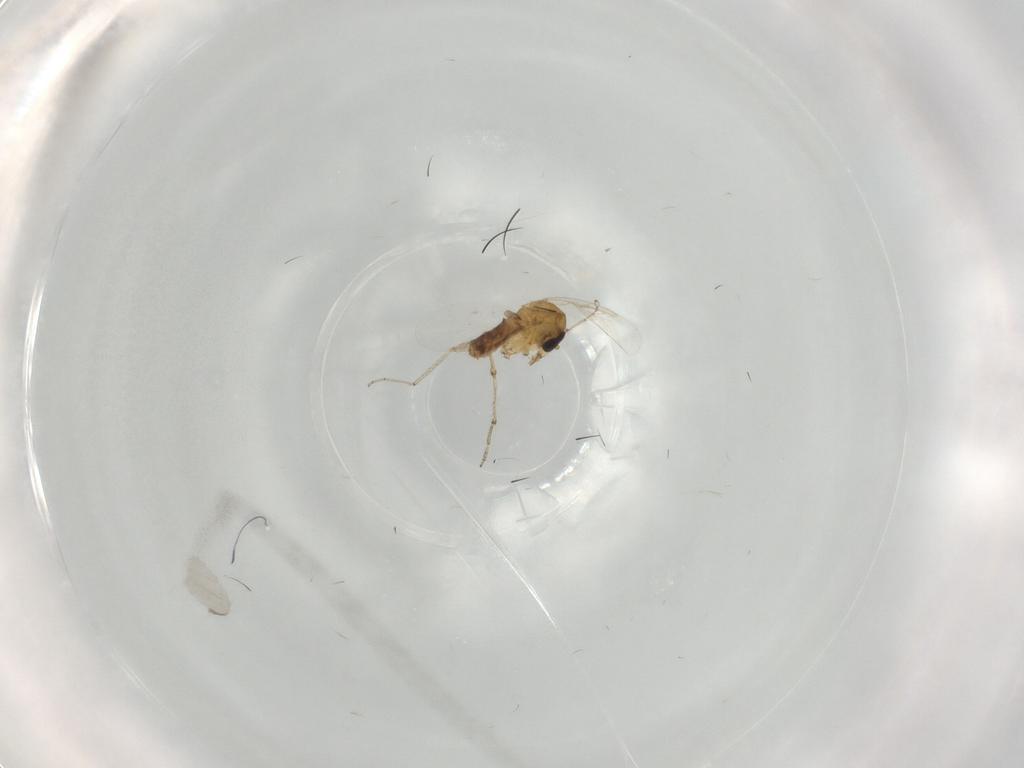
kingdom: Animalia
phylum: Arthropoda
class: Insecta
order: Diptera
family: Ceratopogonidae
